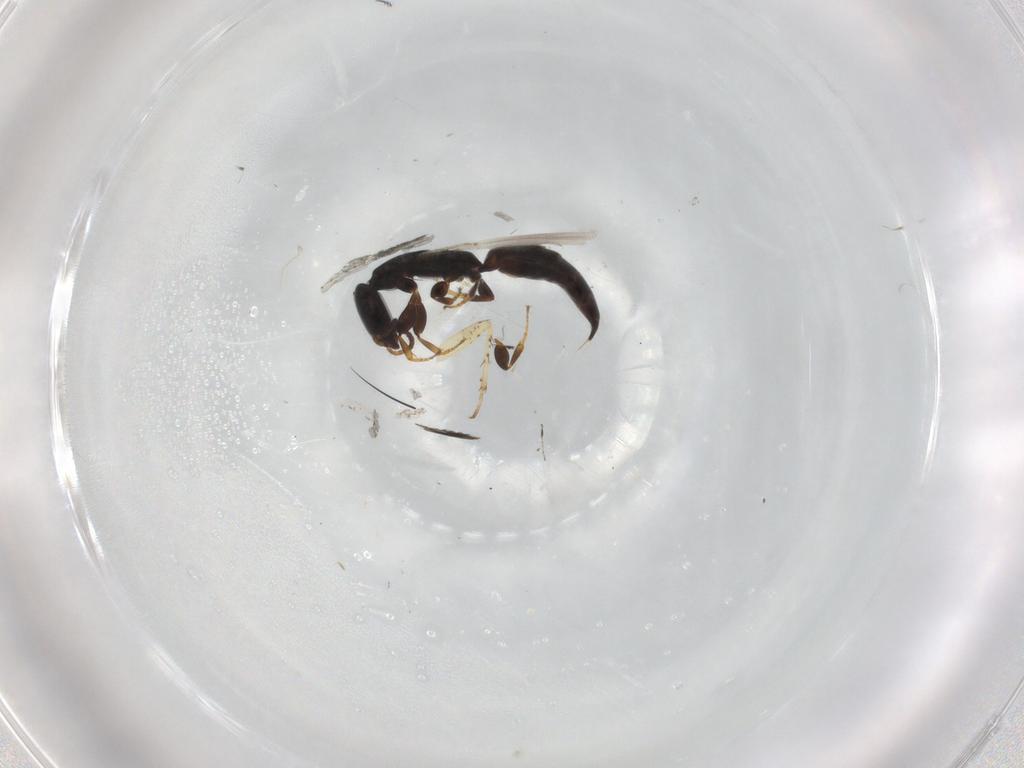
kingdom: Animalia
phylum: Arthropoda
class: Insecta
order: Hymenoptera
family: Bethylidae
